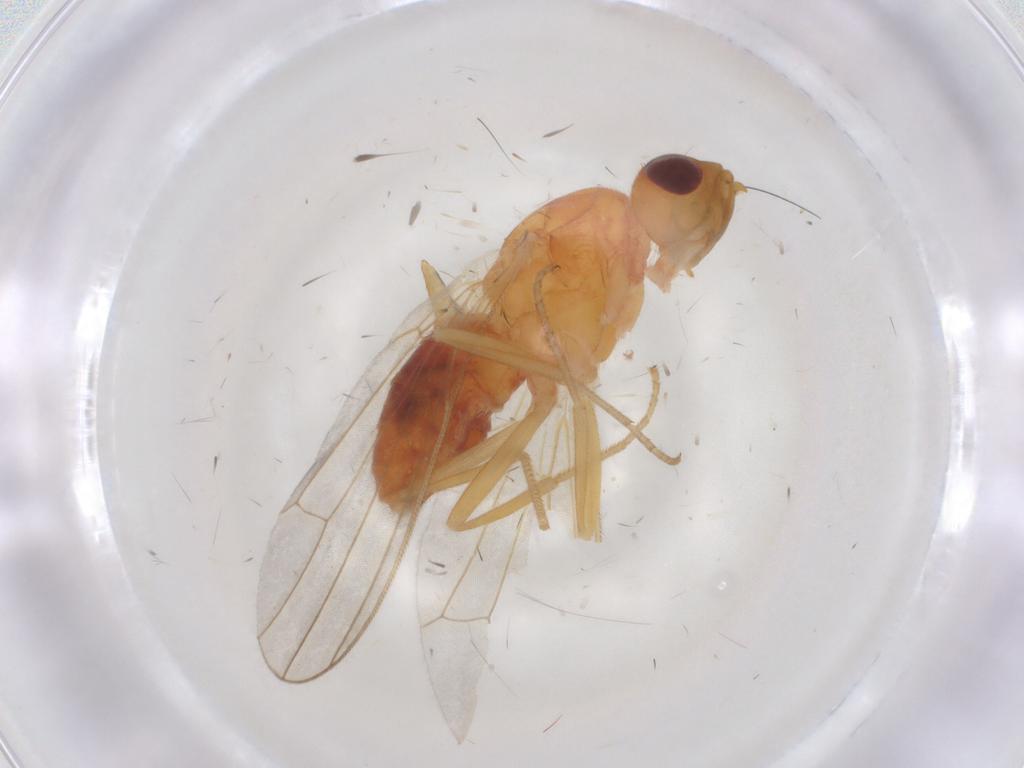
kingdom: Animalia
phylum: Arthropoda
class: Insecta
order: Diptera
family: Keroplatidae
